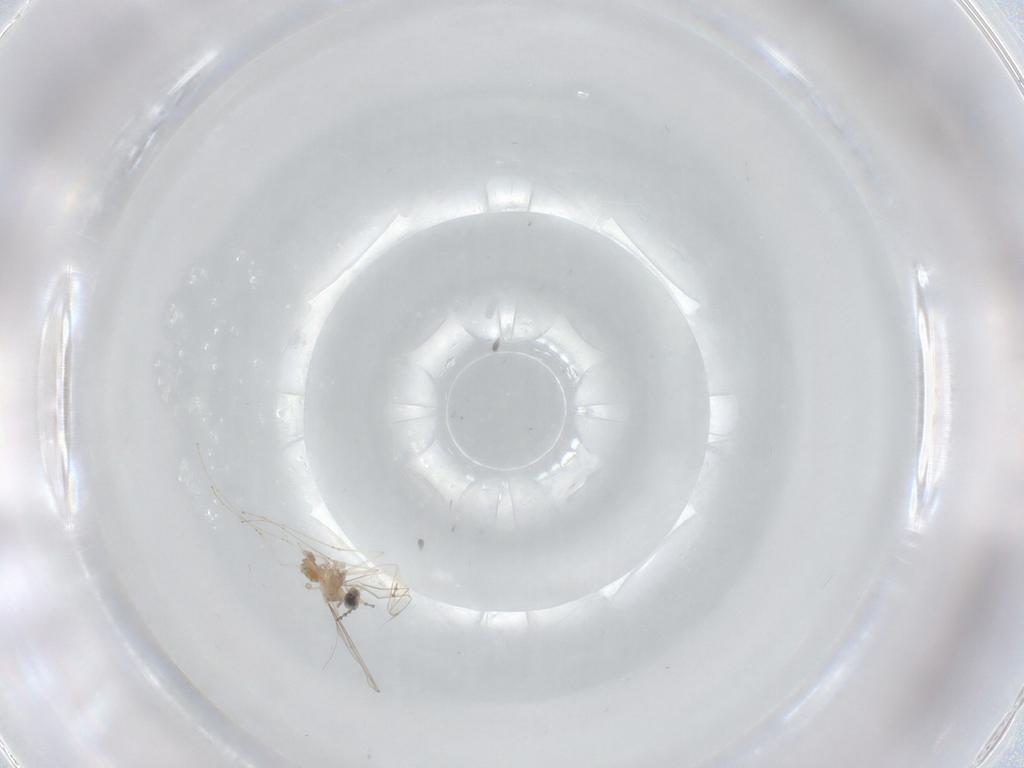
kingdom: Animalia
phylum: Arthropoda
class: Insecta
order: Diptera
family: Cecidomyiidae
